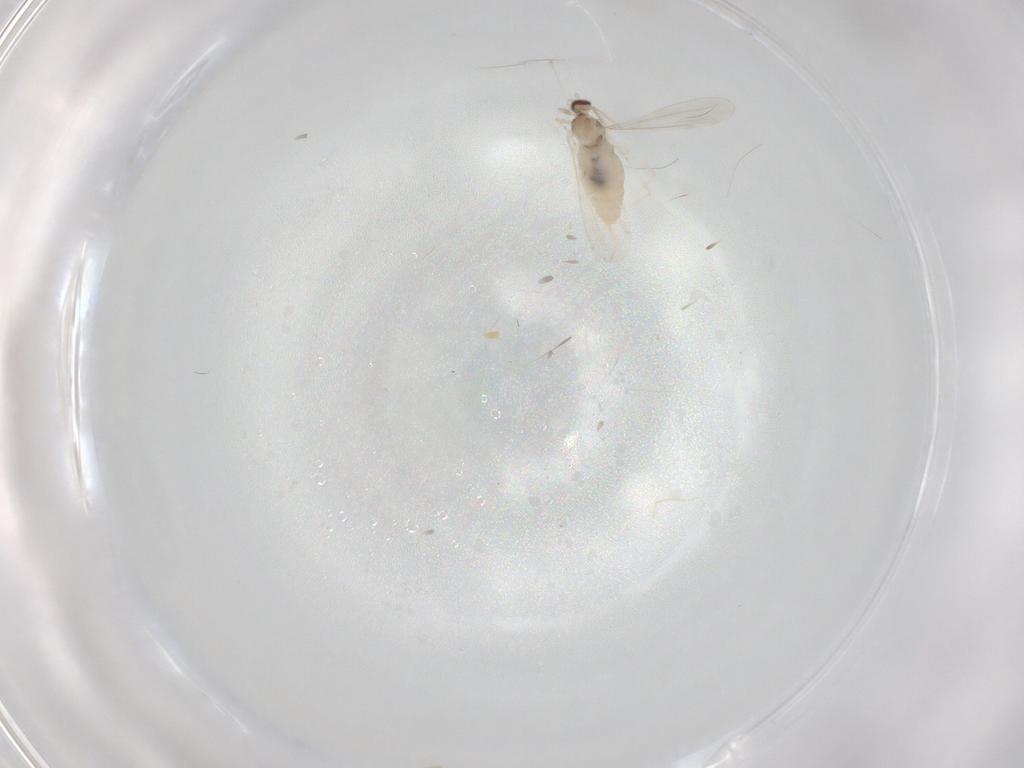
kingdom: Animalia
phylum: Arthropoda
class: Insecta
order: Diptera
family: Cecidomyiidae
